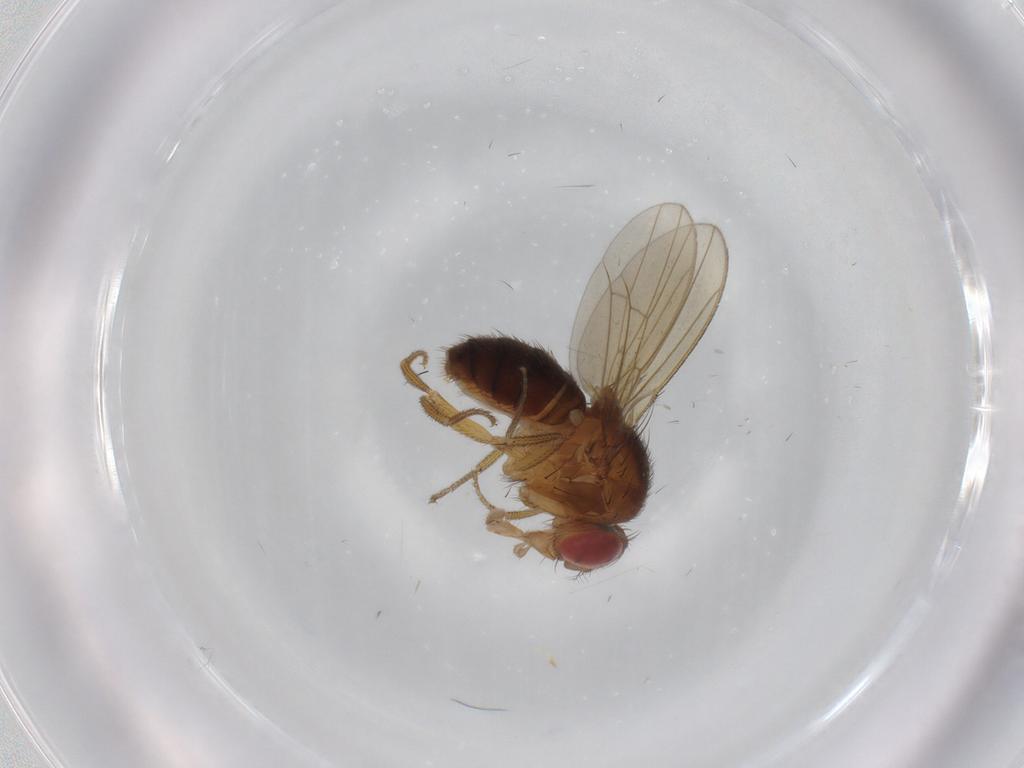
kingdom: Animalia
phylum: Arthropoda
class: Insecta
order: Diptera
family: Drosophilidae
